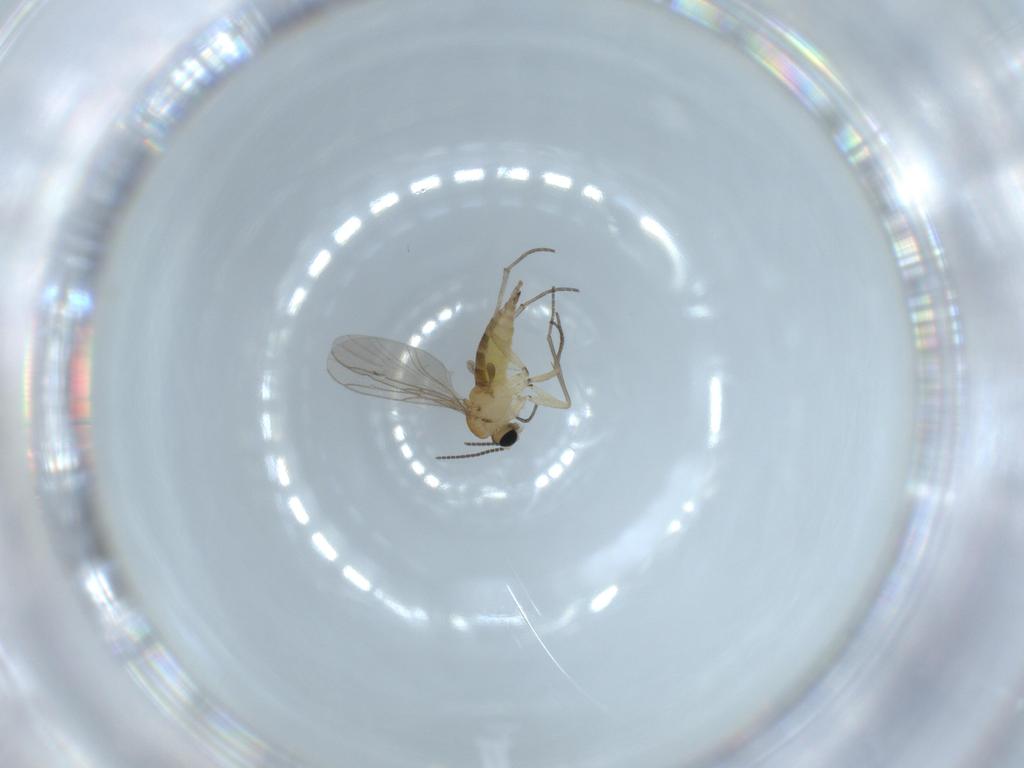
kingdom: Animalia
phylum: Arthropoda
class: Insecta
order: Diptera
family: Sciaridae
